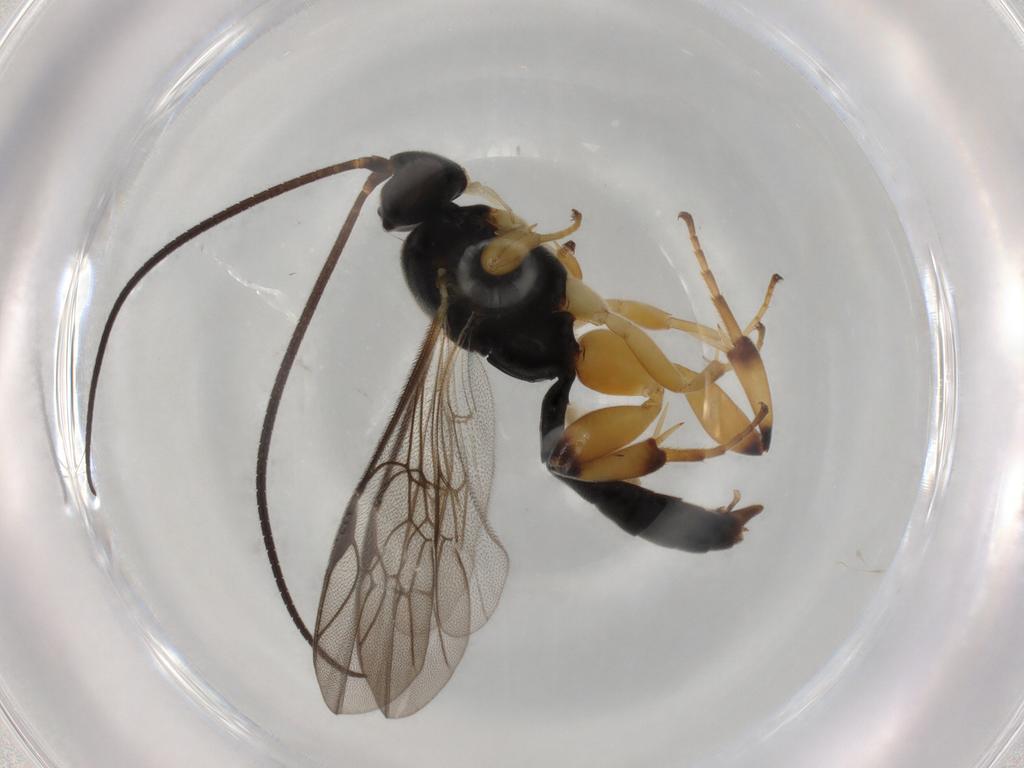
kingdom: Animalia
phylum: Arthropoda
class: Insecta
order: Hymenoptera
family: Ichneumonidae
